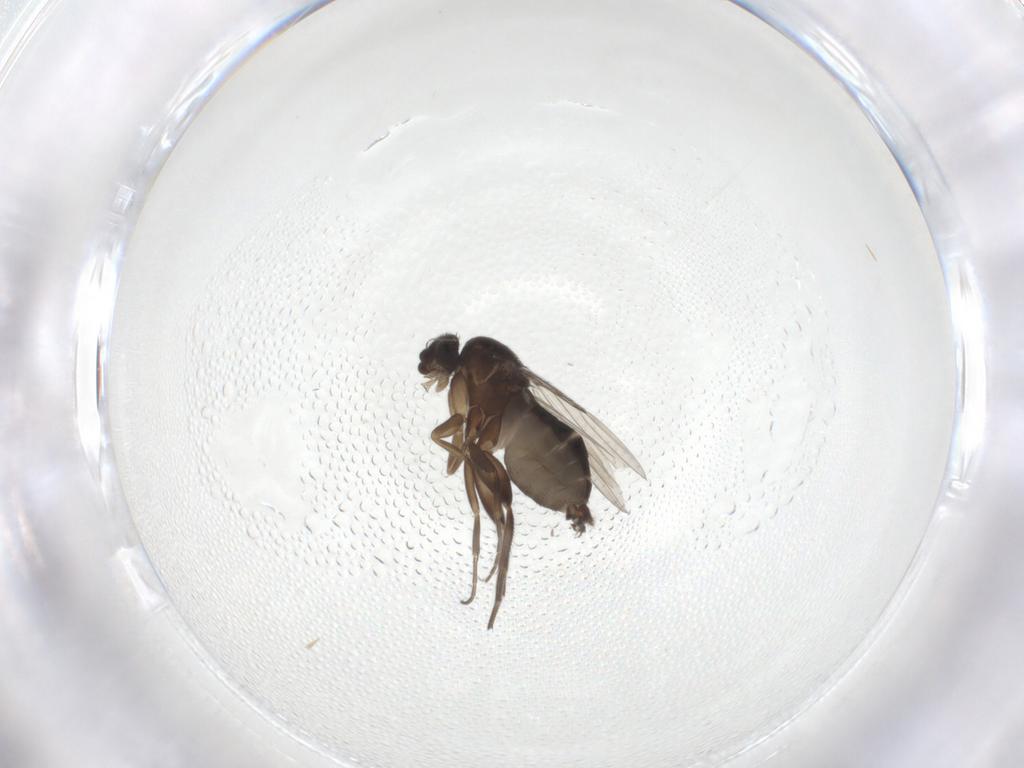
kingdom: Animalia
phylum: Arthropoda
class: Insecta
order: Diptera
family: Phoridae
